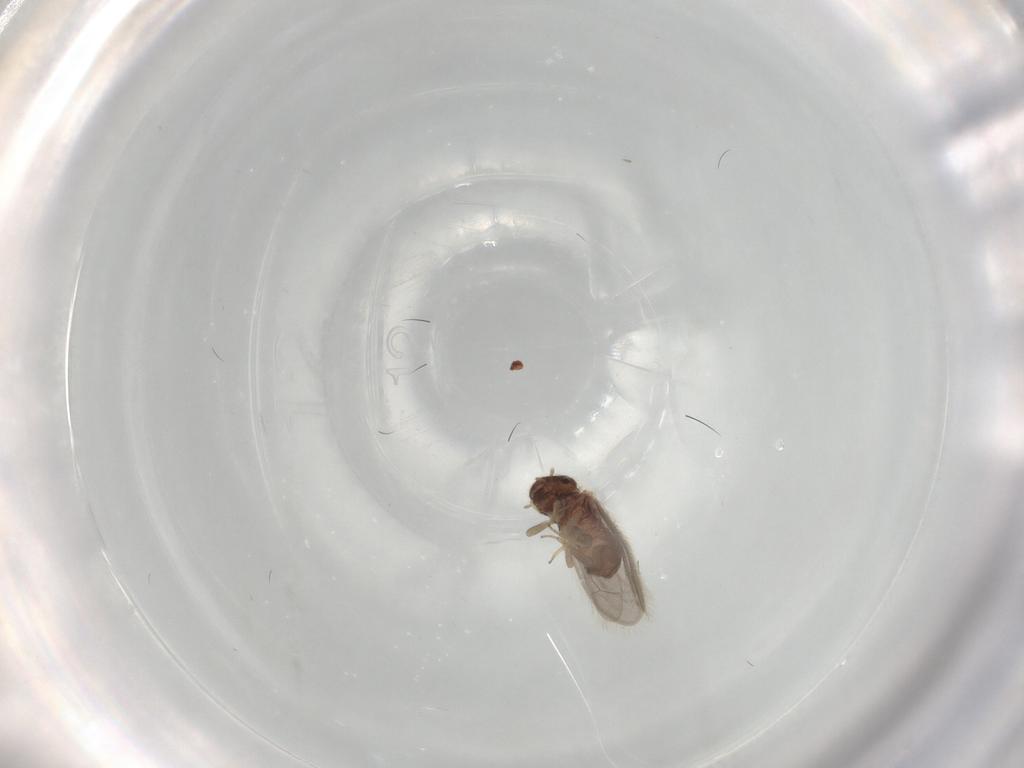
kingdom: Animalia
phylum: Arthropoda
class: Insecta
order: Psocodea
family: Archipsocidae
